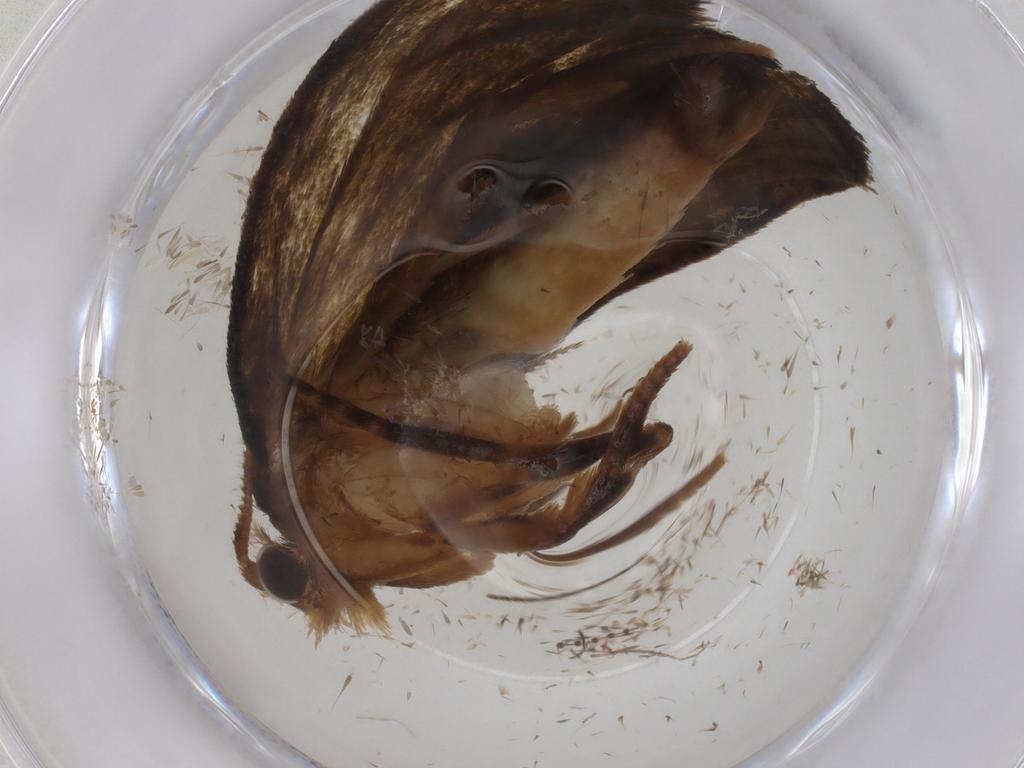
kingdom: Animalia
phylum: Arthropoda
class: Insecta
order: Lepidoptera
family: Geometridae
